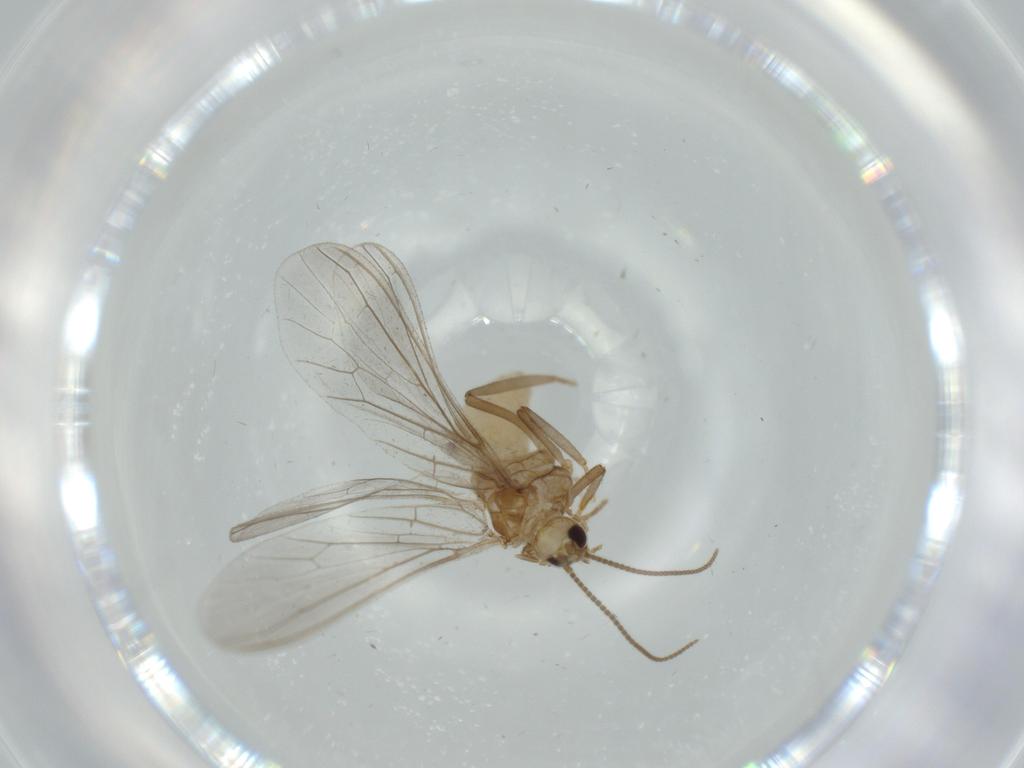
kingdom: Animalia
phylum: Arthropoda
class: Insecta
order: Neuroptera
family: Coniopterygidae
